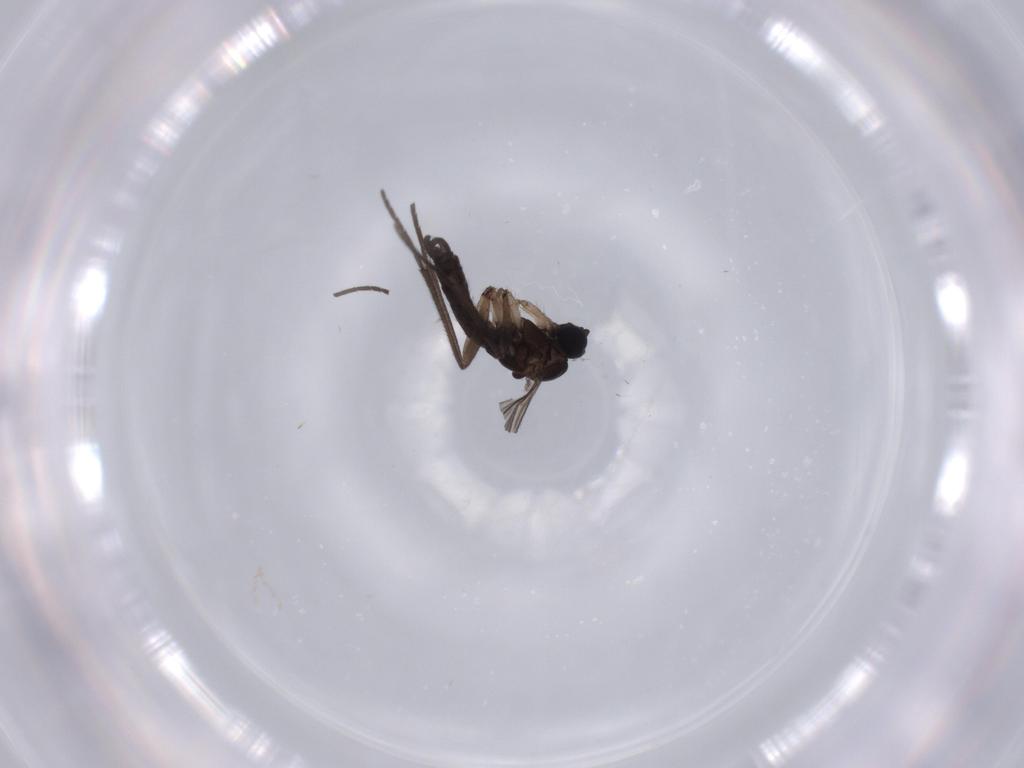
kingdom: Animalia
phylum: Arthropoda
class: Insecta
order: Diptera
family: Sciaridae
